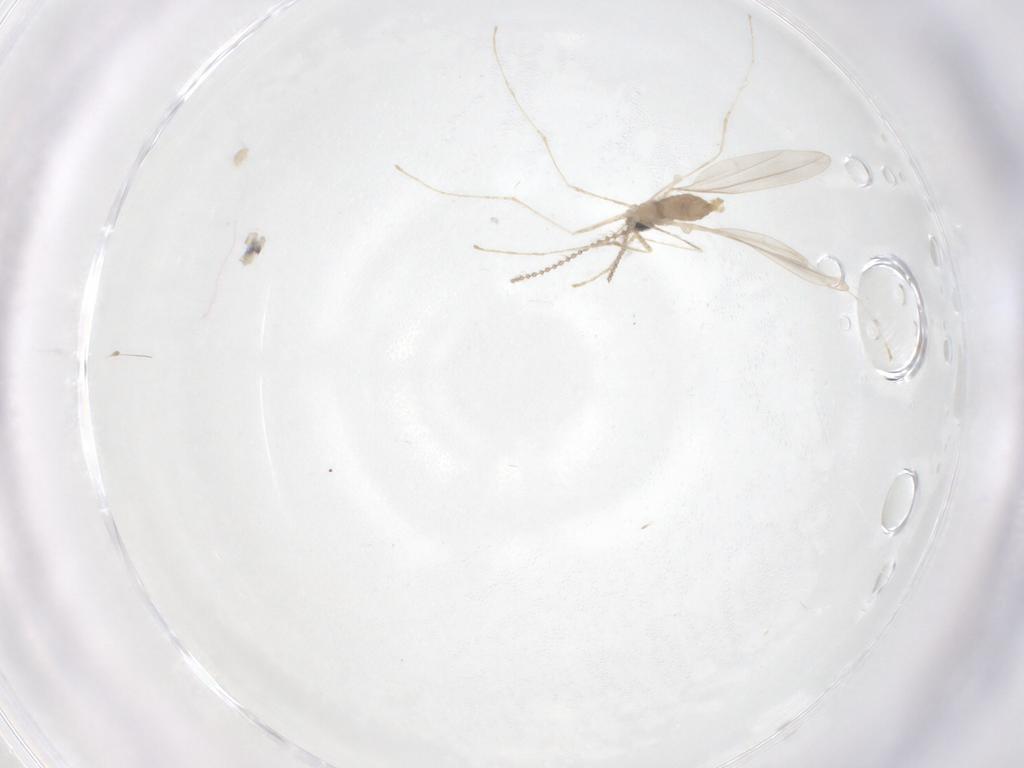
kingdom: Animalia
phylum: Arthropoda
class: Insecta
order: Diptera
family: Cecidomyiidae
